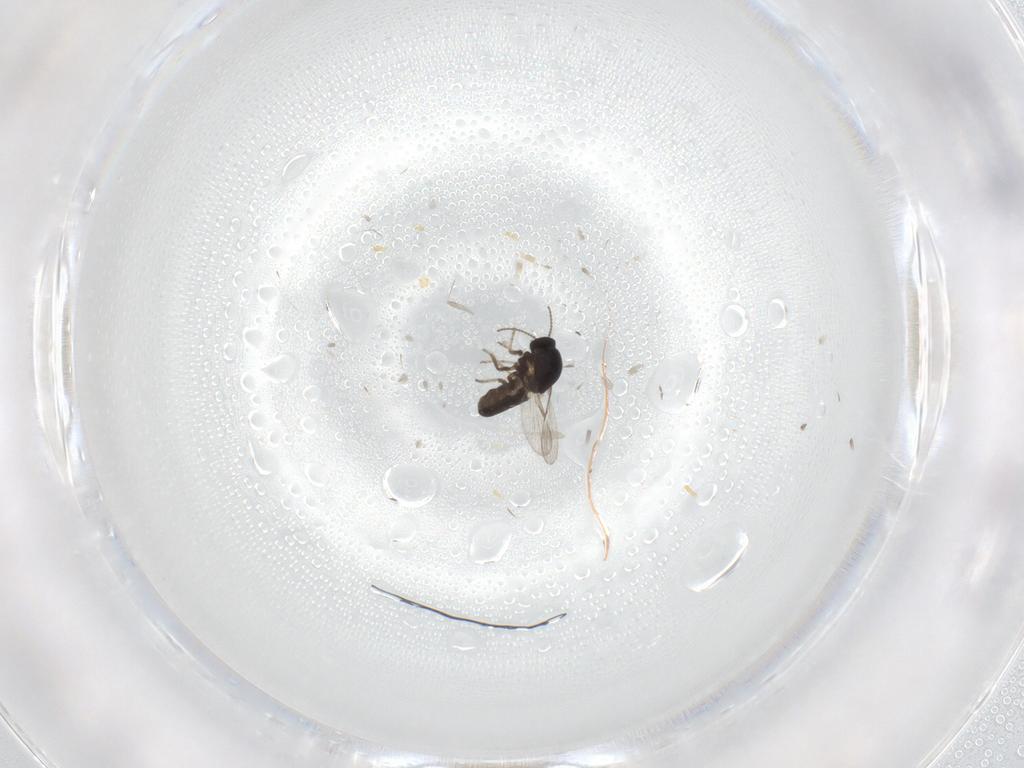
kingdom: Animalia
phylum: Arthropoda
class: Insecta
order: Diptera
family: Ceratopogonidae
